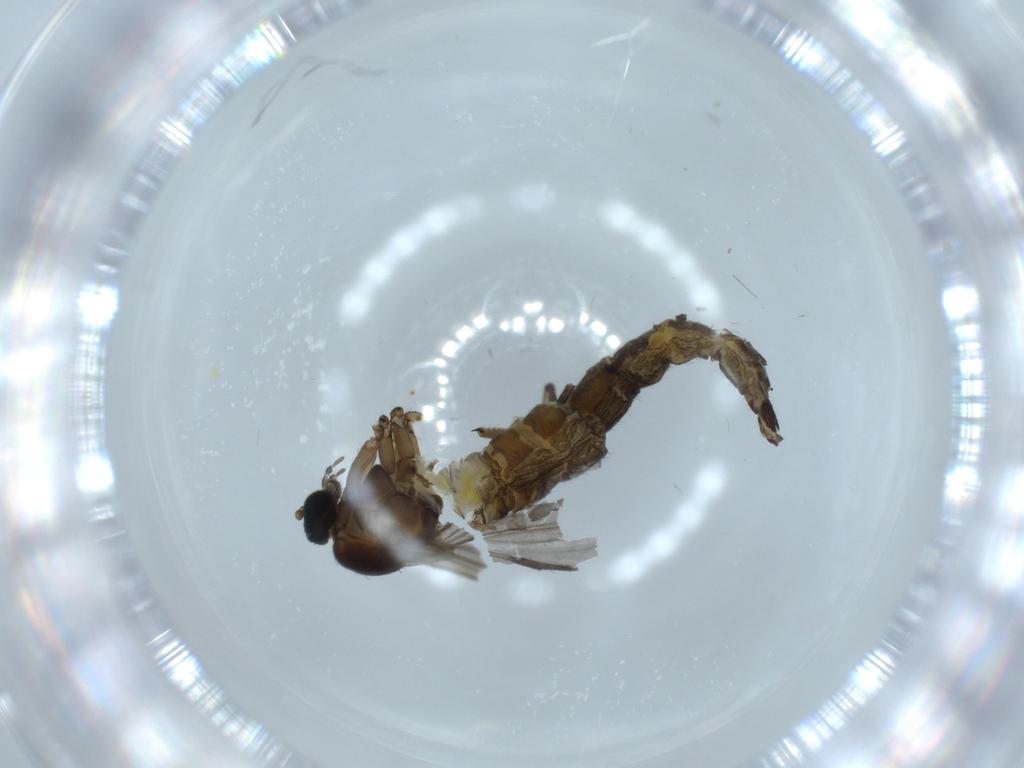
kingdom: Animalia
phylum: Arthropoda
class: Insecta
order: Diptera
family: Sciaridae
